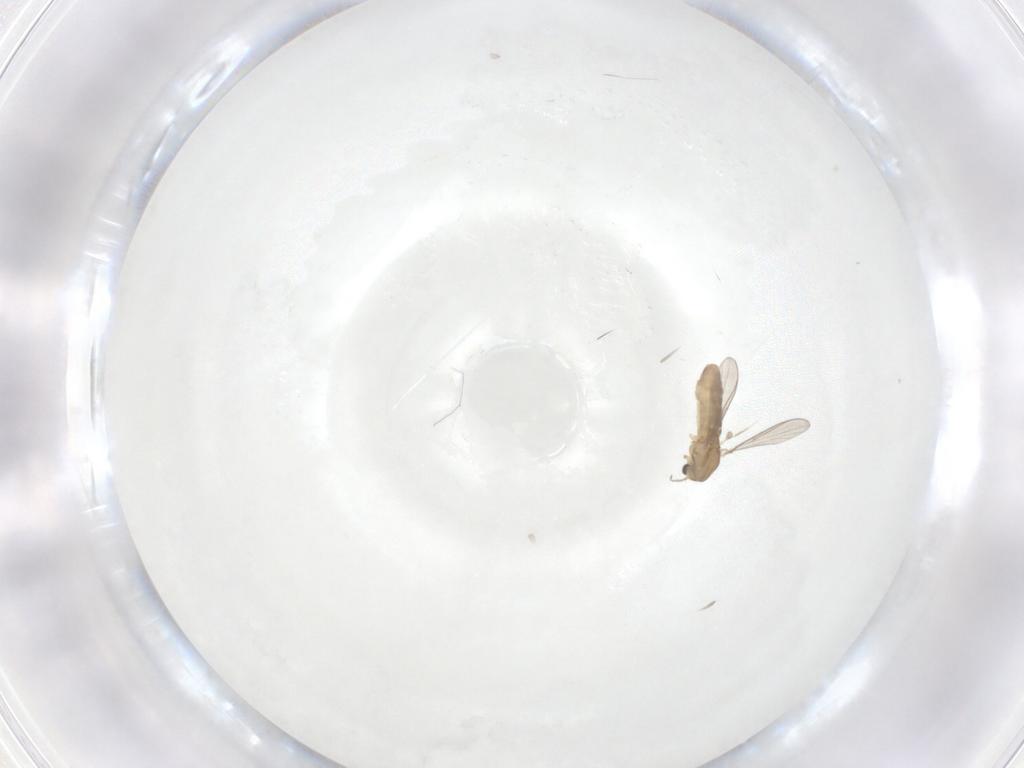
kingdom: Animalia
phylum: Arthropoda
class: Insecta
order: Diptera
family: Chironomidae
